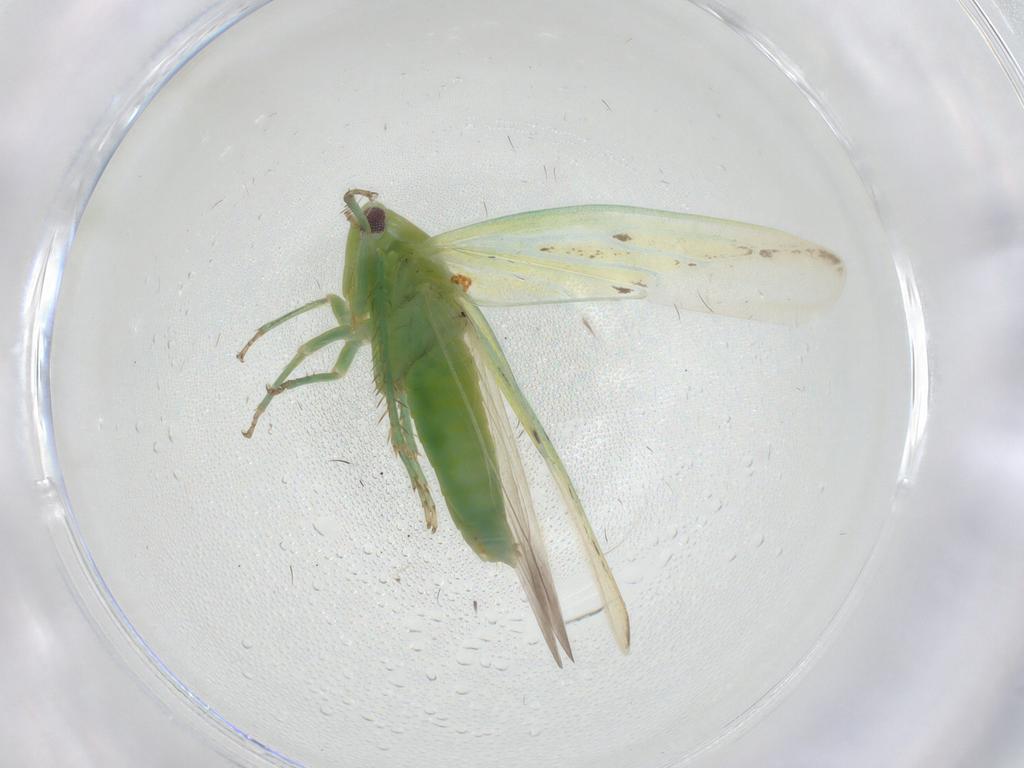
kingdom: Animalia
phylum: Arthropoda
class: Insecta
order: Hemiptera
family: Cicadellidae
